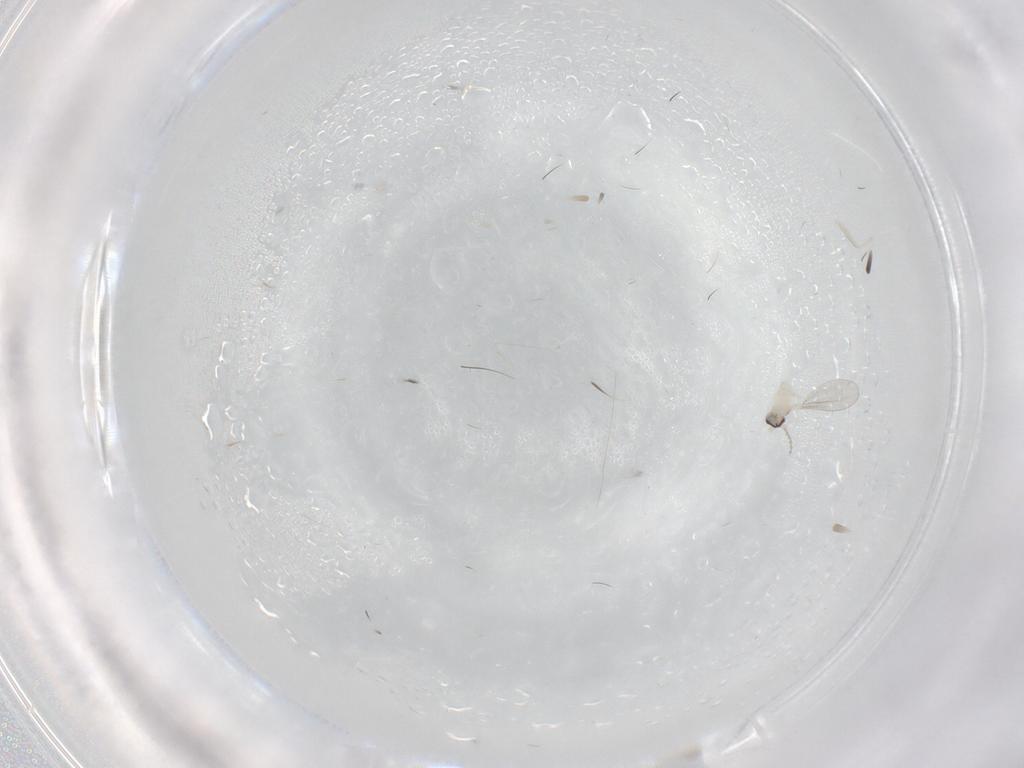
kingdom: Animalia
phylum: Arthropoda
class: Insecta
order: Diptera
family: Cecidomyiidae
